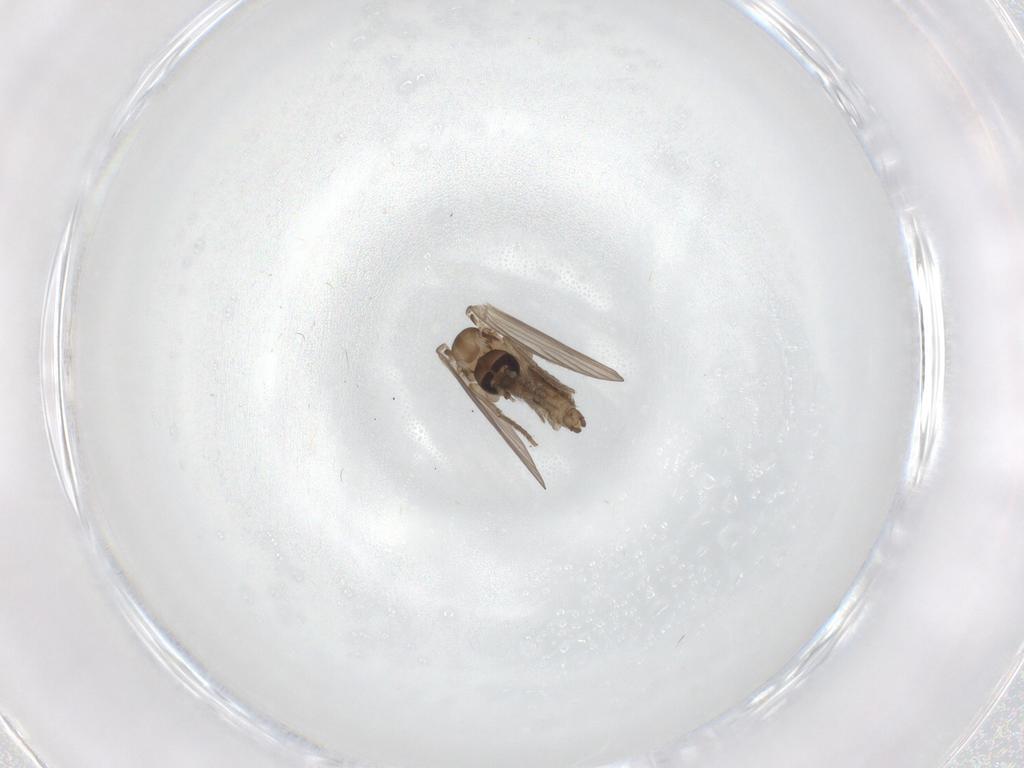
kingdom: Animalia
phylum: Arthropoda
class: Insecta
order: Diptera
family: Psychodidae
